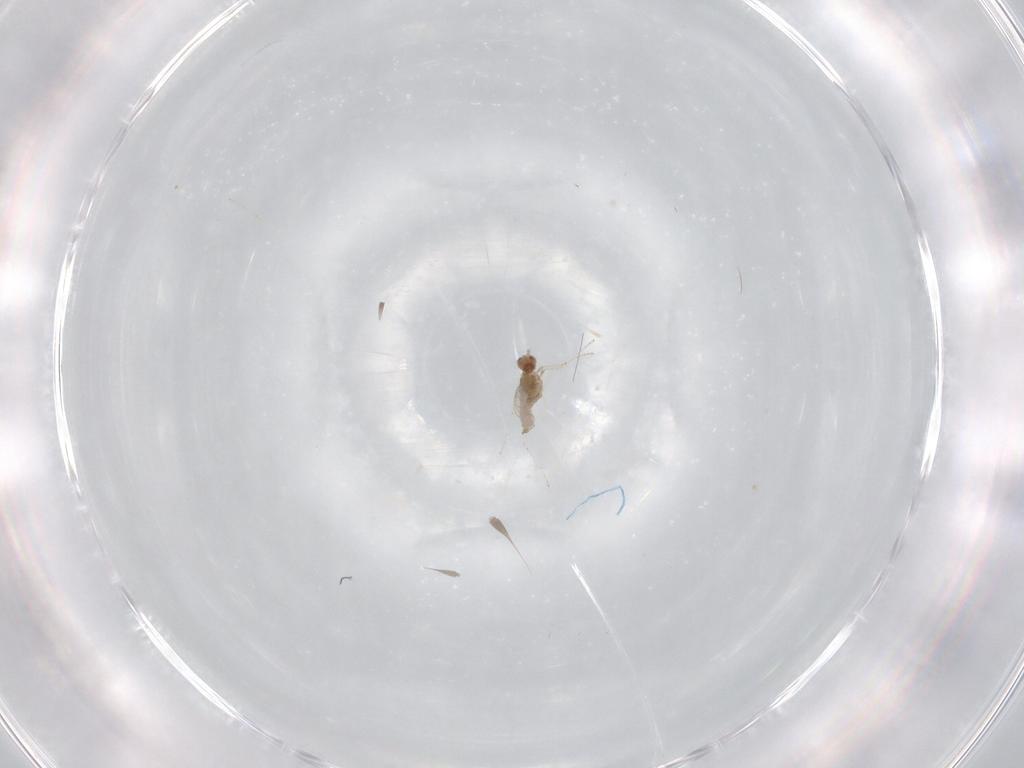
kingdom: Animalia
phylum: Arthropoda
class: Insecta
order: Diptera
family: Cecidomyiidae
